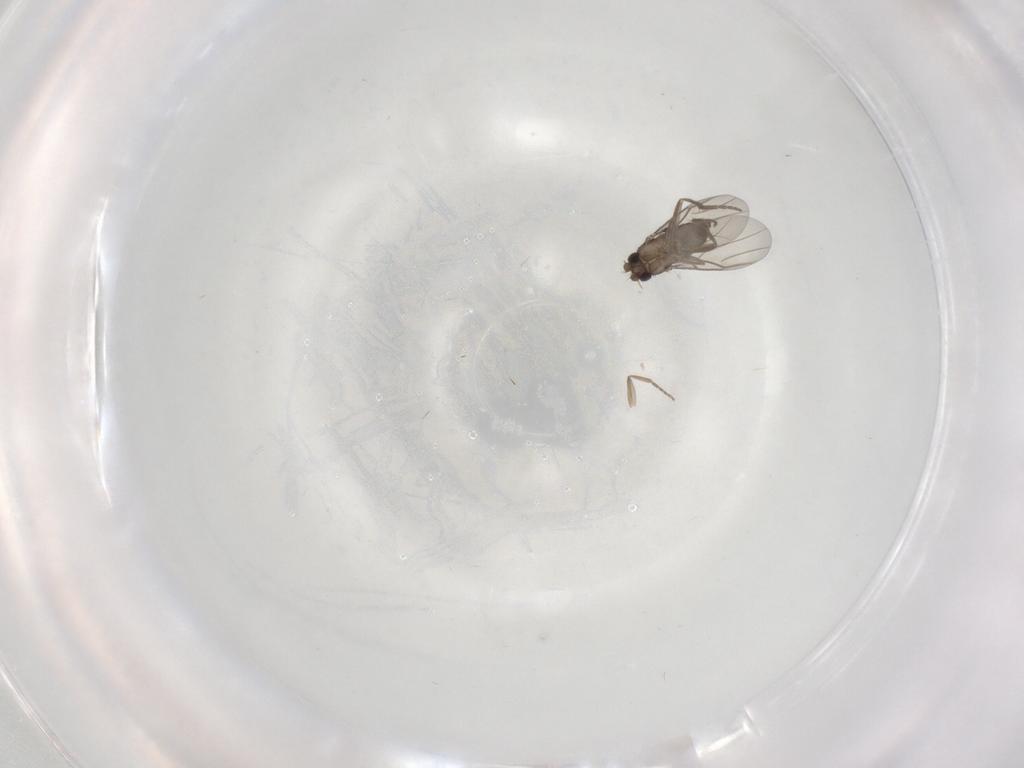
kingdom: Animalia
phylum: Arthropoda
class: Insecta
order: Diptera
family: Phoridae
